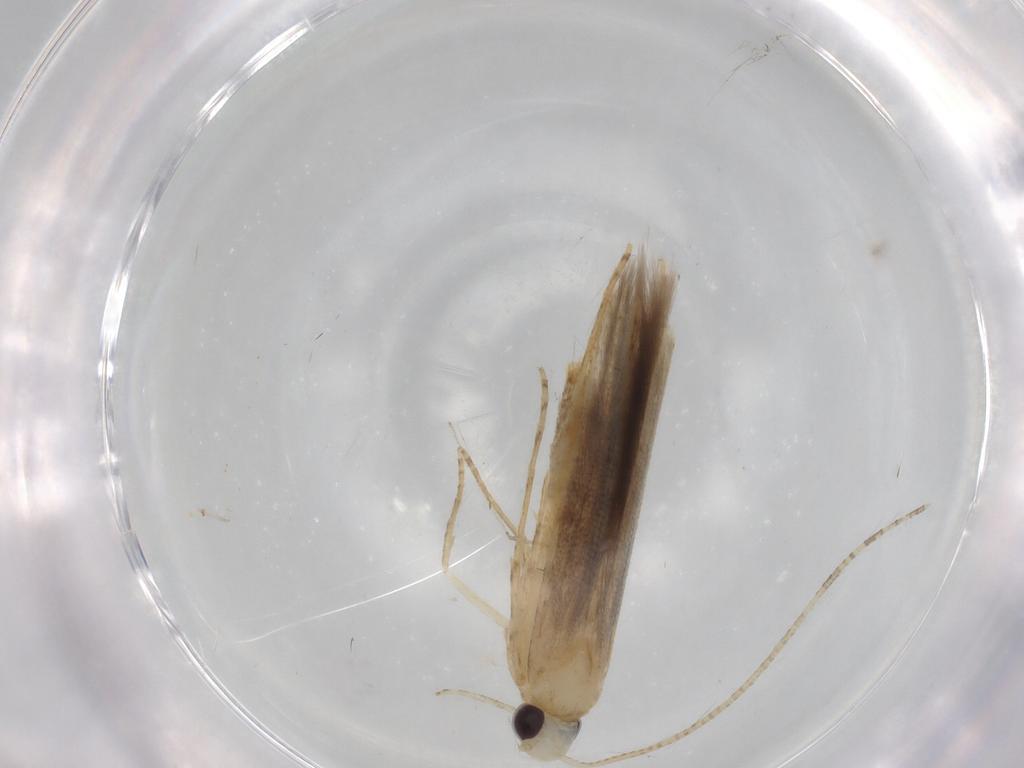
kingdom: Animalia
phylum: Arthropoda
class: Insecta
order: Lepidoptera
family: Batrachedridae
